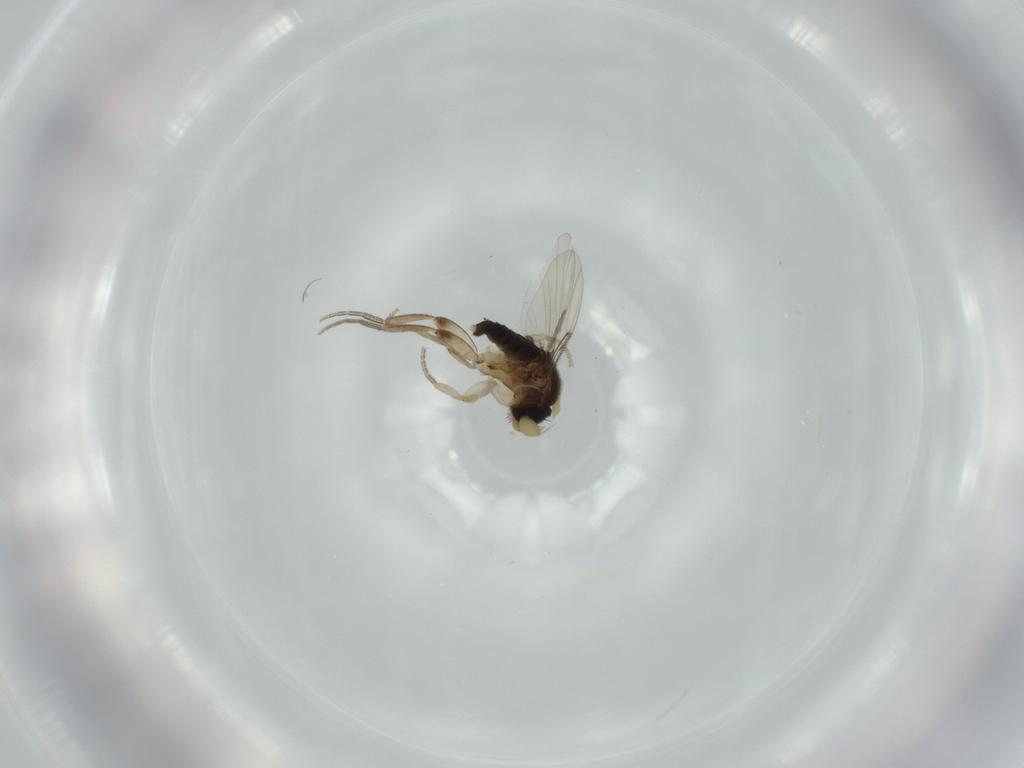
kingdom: Animalia
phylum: Arthropoda
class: Insecta
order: Diptera
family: Phoridae
